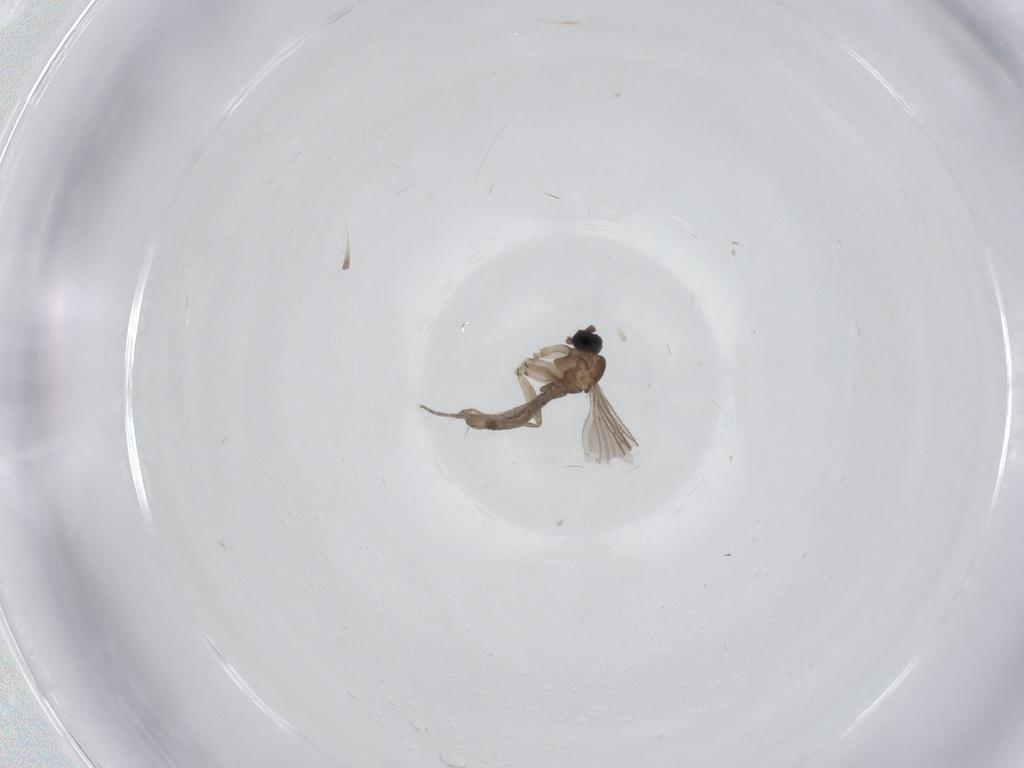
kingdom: Animalia
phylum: Arthropoda
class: Insecta
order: Diptera
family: Sciaridae
